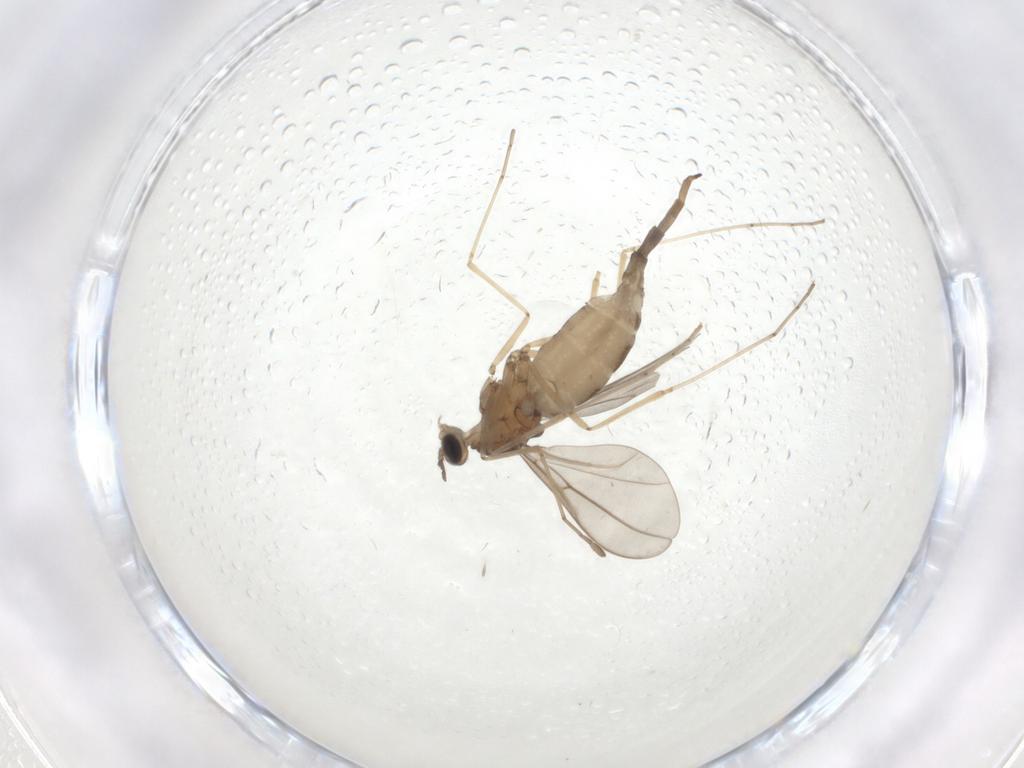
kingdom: Animalia
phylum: Arthropoda
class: Insecta
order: Diptera
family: Cecidomyiidae
